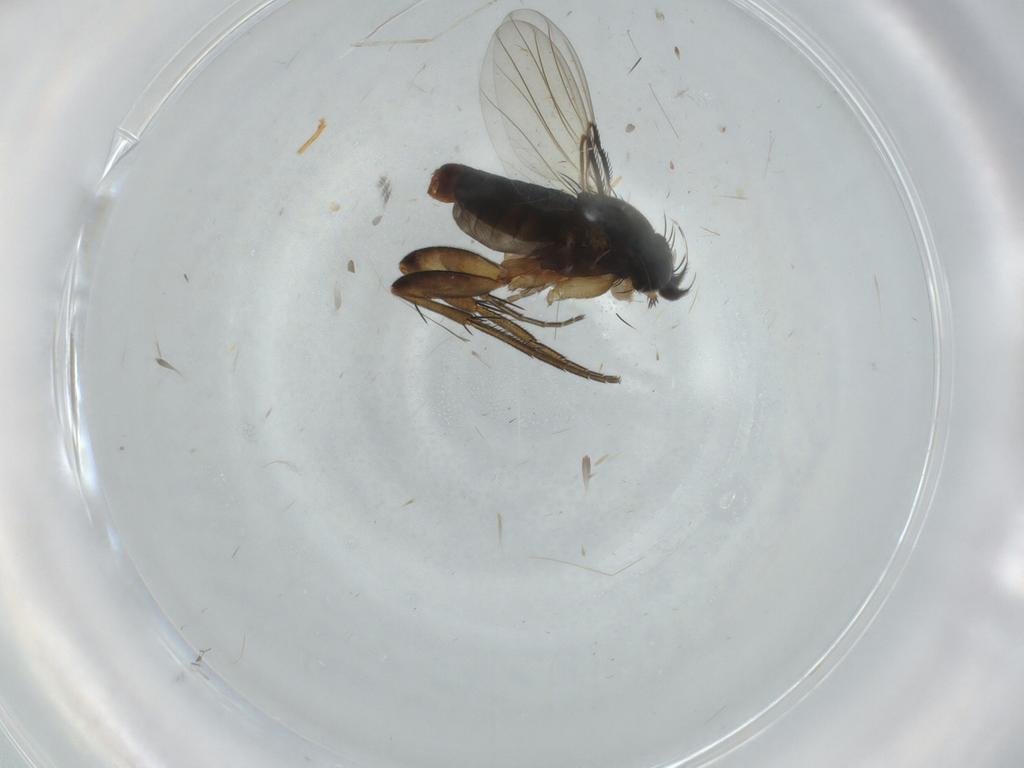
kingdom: Animalia
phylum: Arthropoda
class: Insecta
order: Diptera
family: Phoridae
